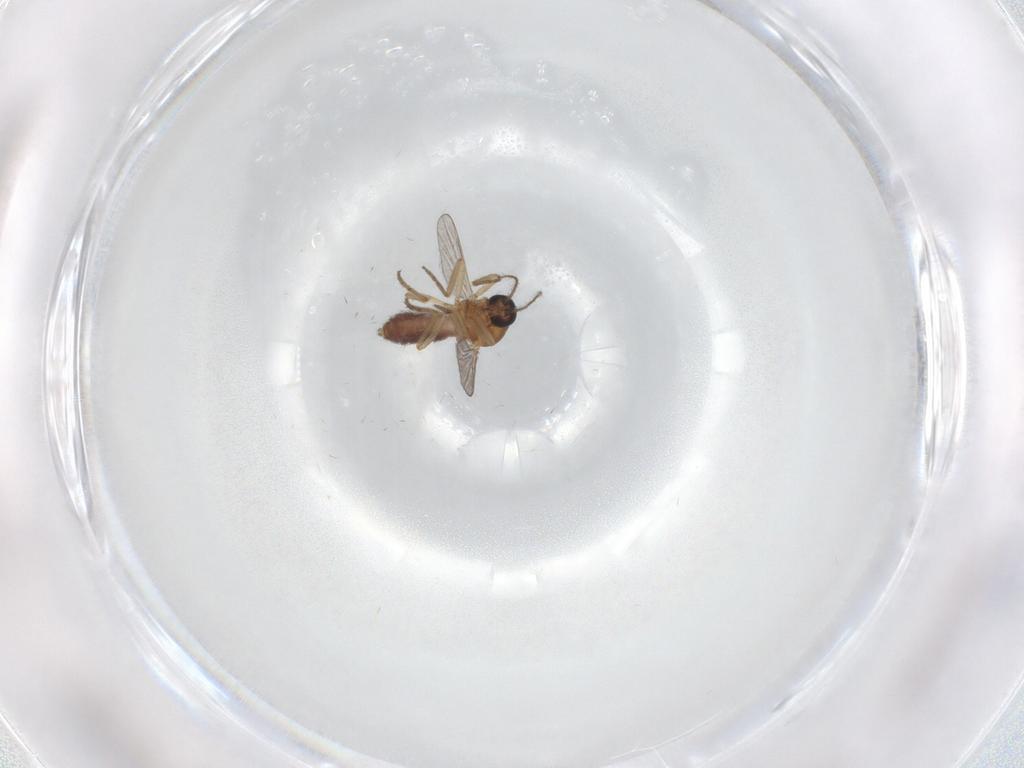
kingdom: Animalia
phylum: Arthropoda
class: Insecta
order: Diptera
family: Ceratopogonidae
